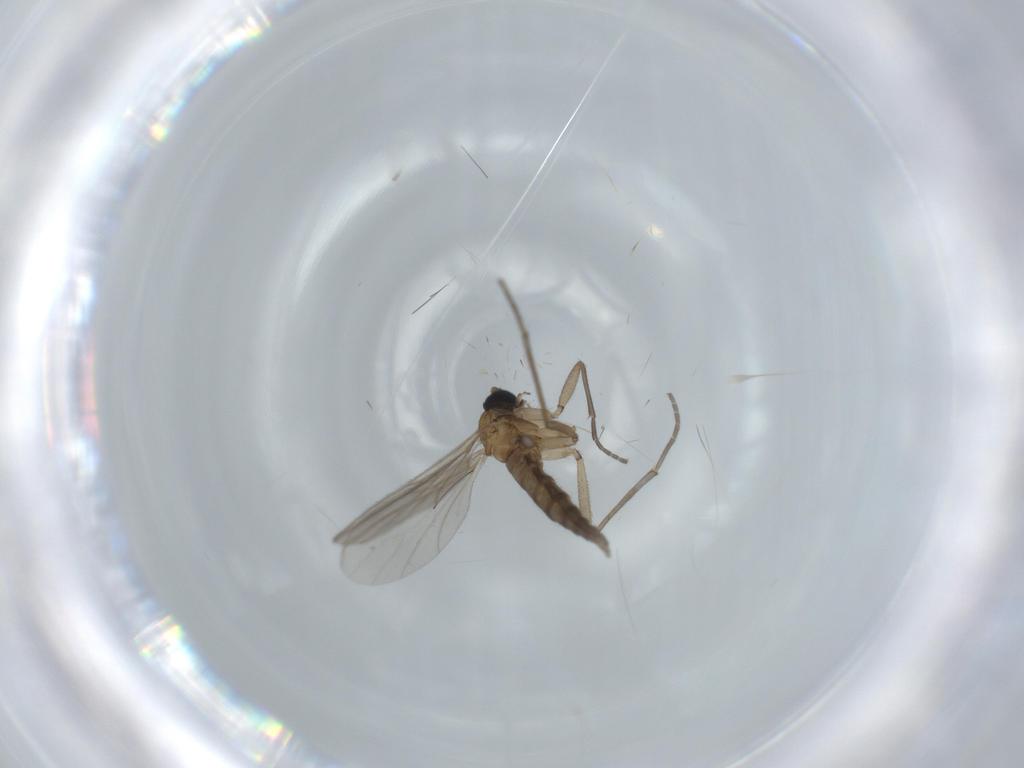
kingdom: Animalia
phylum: Arthropoda
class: Insecta
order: Diptera
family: Sciaridae
